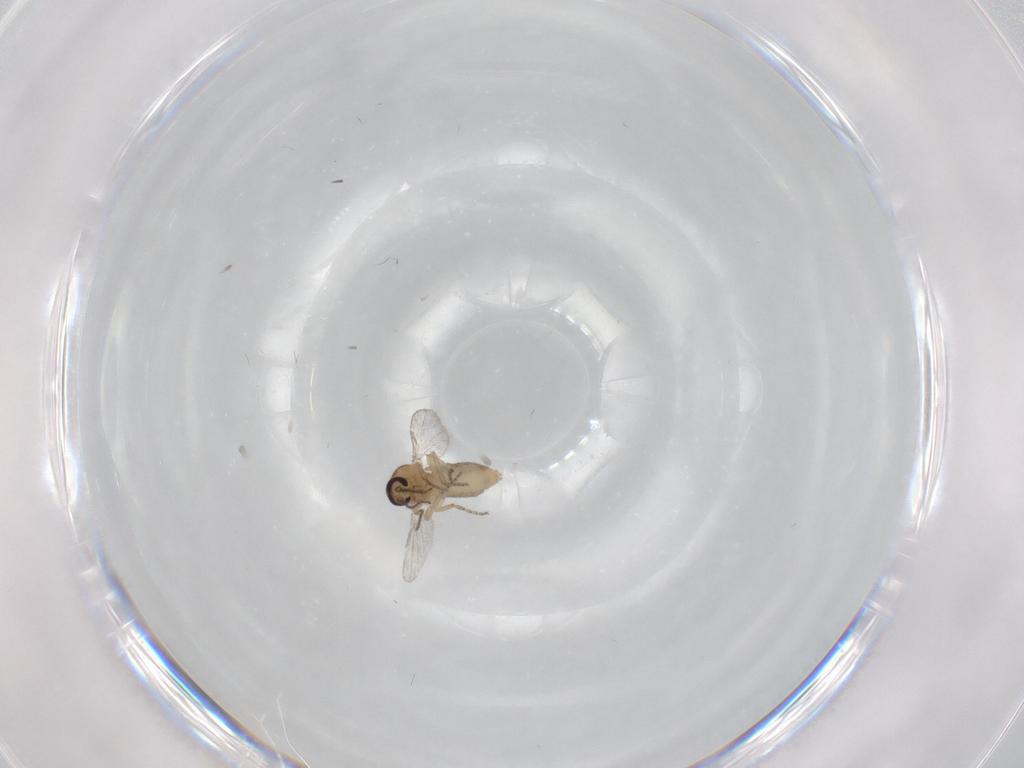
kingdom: Animalia
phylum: Arthropoda
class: Insecta
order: Diptera
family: Ceratopogonidae
